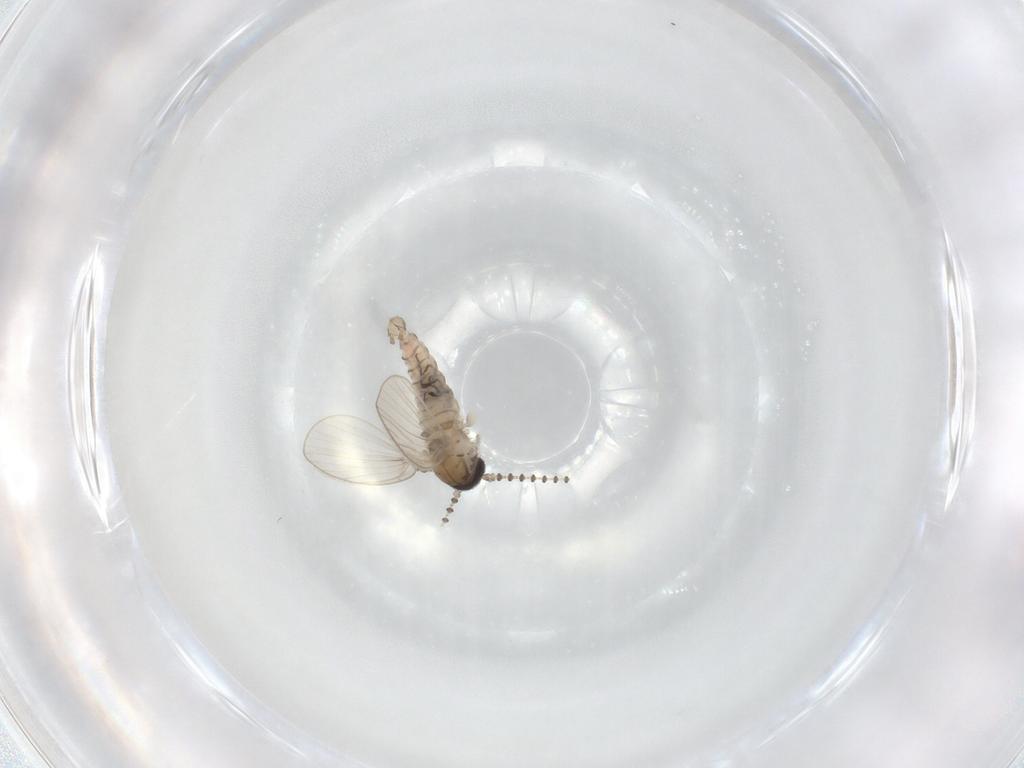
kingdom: Animalia
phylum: Arthropoda
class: Insecta
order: Diptera
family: Psychodidae
